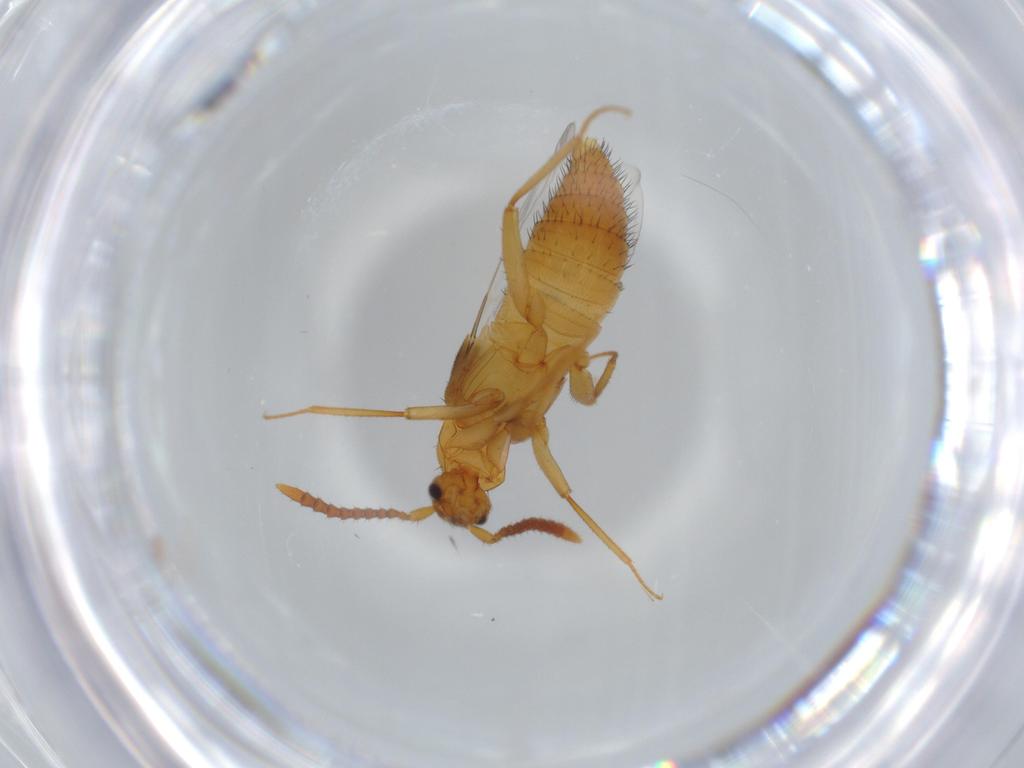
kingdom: Animalia
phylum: Arthropoda
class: Insecta
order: Coleoptera
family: Staphylinidae
